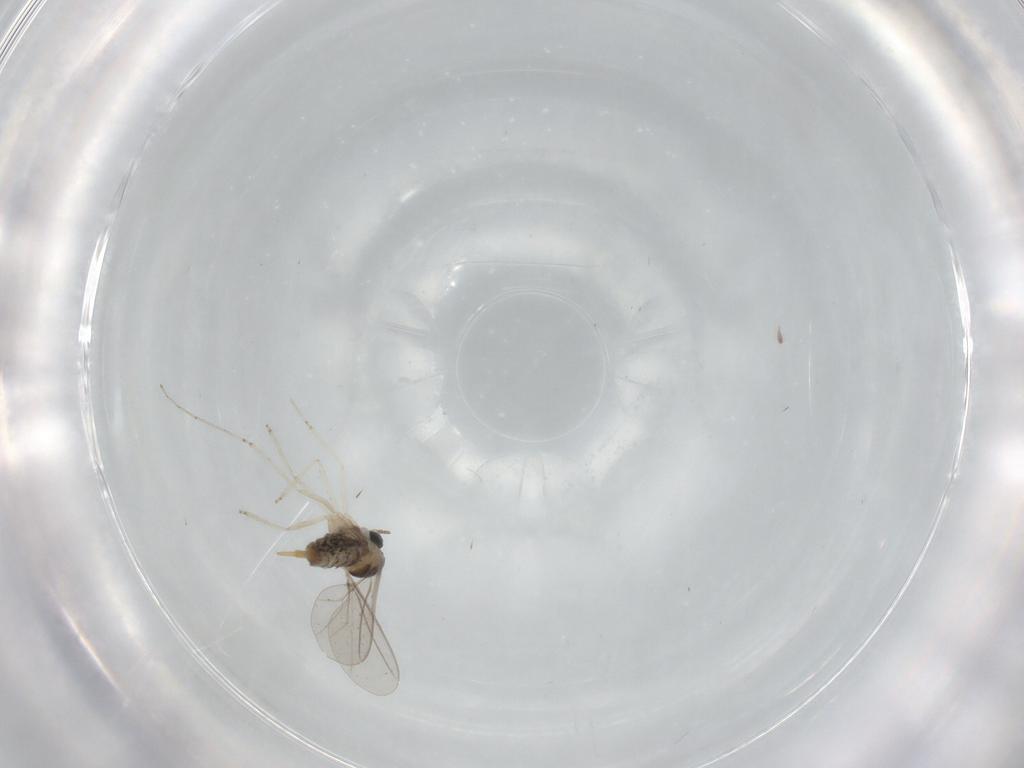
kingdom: Animalia
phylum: Arthropoda
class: Insecta
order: Diptera
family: Cecidomyiidae
